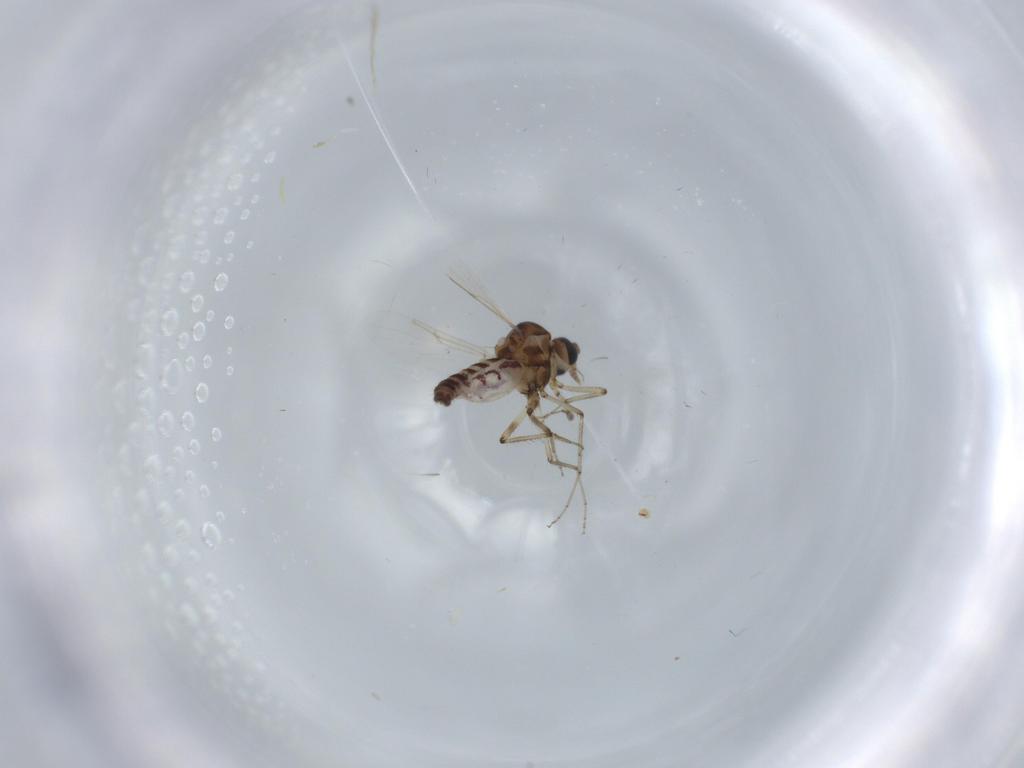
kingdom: Animalia
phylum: Arthropoda
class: Insecta
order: Diptera
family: Ceratopogonidae
